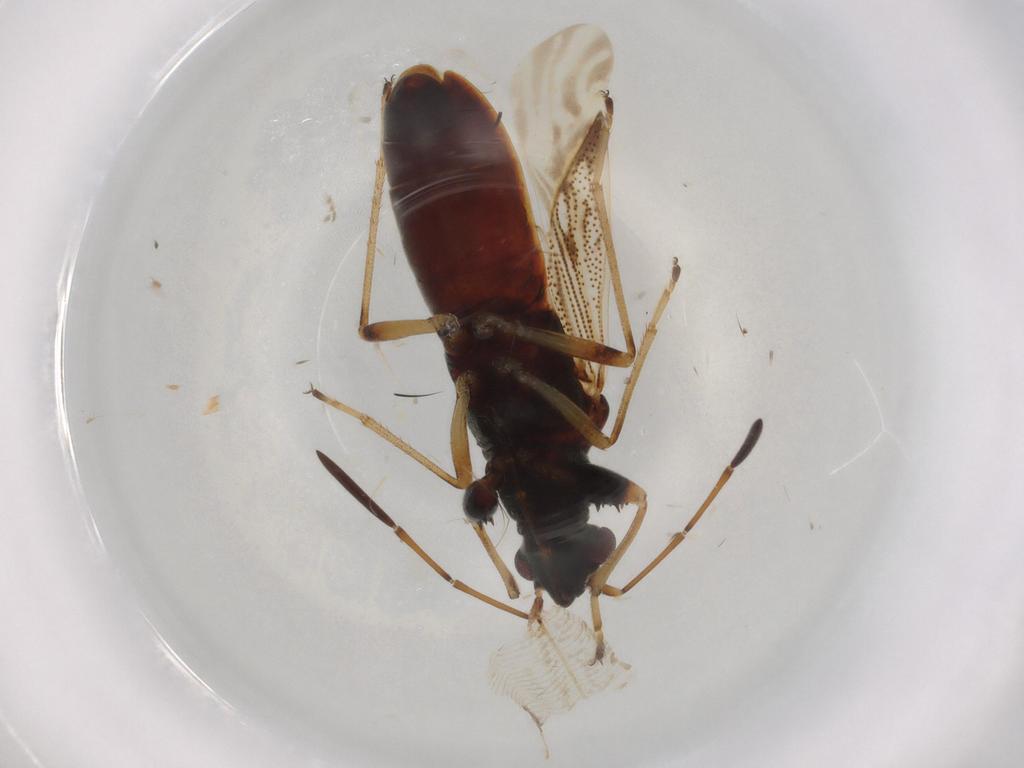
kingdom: Animalia
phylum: Arthropoda
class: Insecta
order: Hemiptera
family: Rhyparochromidae
